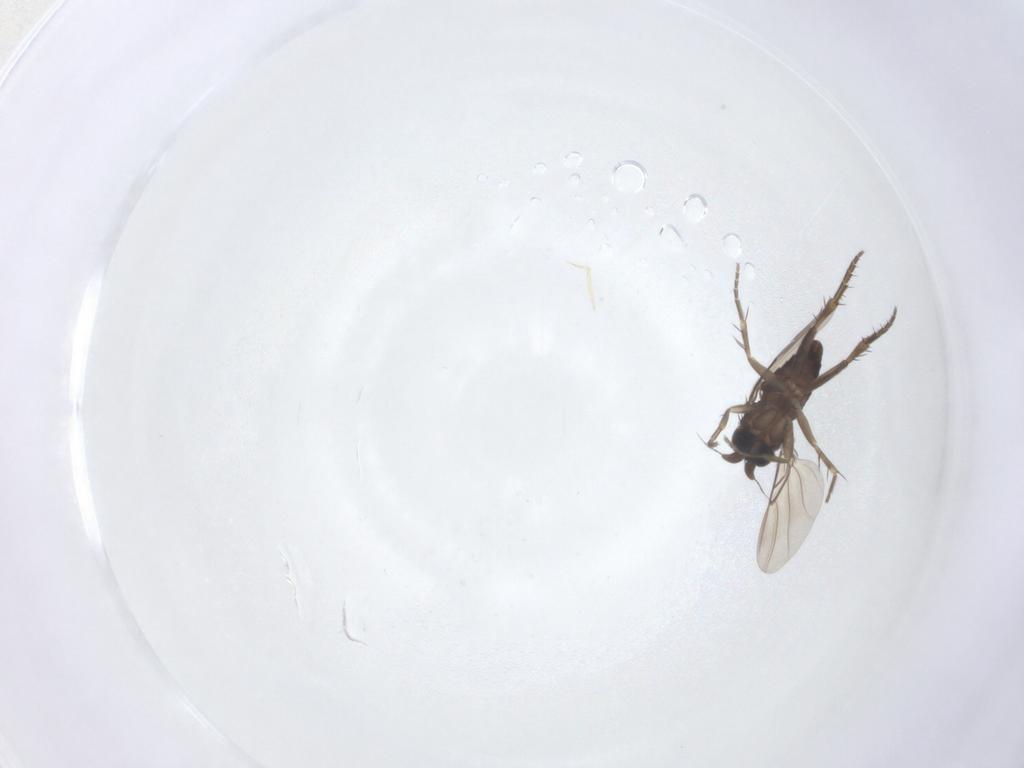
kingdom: Animalia
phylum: Arthropoda
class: Insecta
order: Diptera
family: Phoridae
